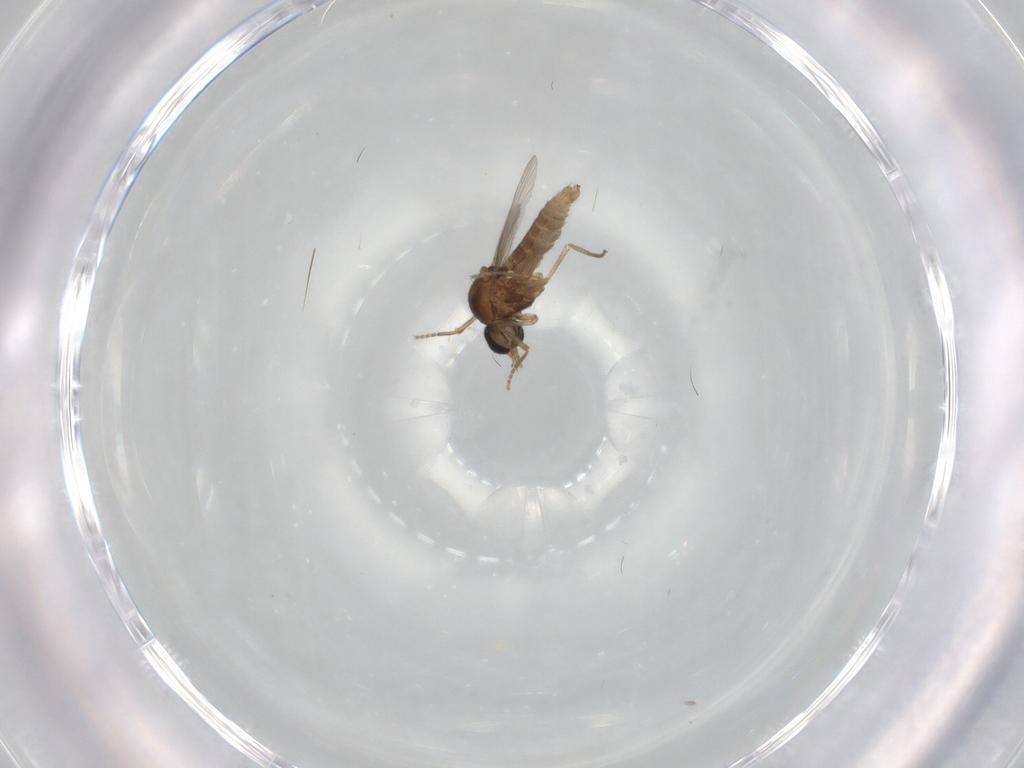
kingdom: Animalia
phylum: Arthropoda
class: Insecta
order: Diptera
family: Ceratopogonidae
